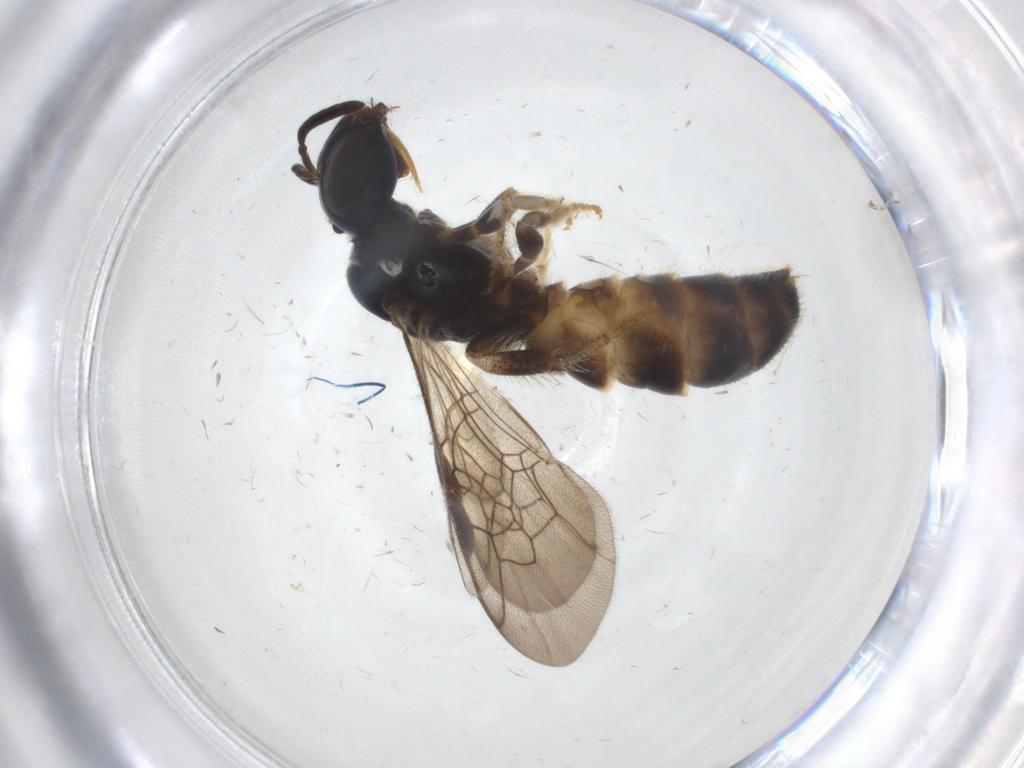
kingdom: Animalia
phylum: Arthropoda
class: Insecta
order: Hymenoptera
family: Apidae
